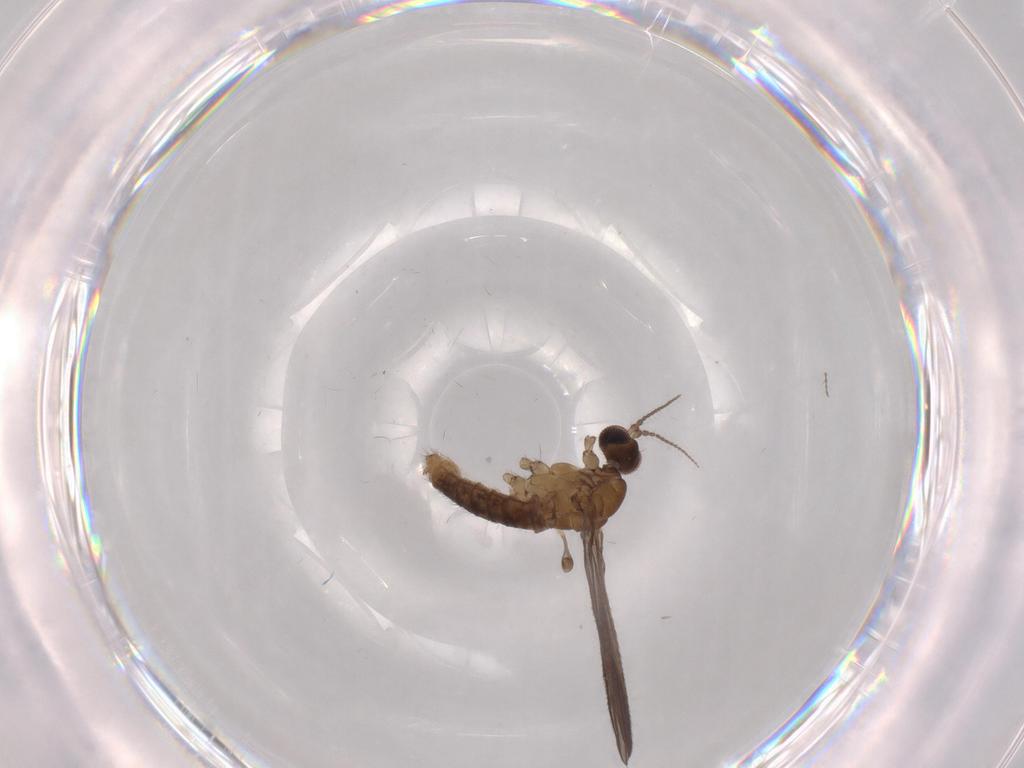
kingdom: Animalia
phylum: Arthropoda
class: Insecta
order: Diptera
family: Limoniidae
